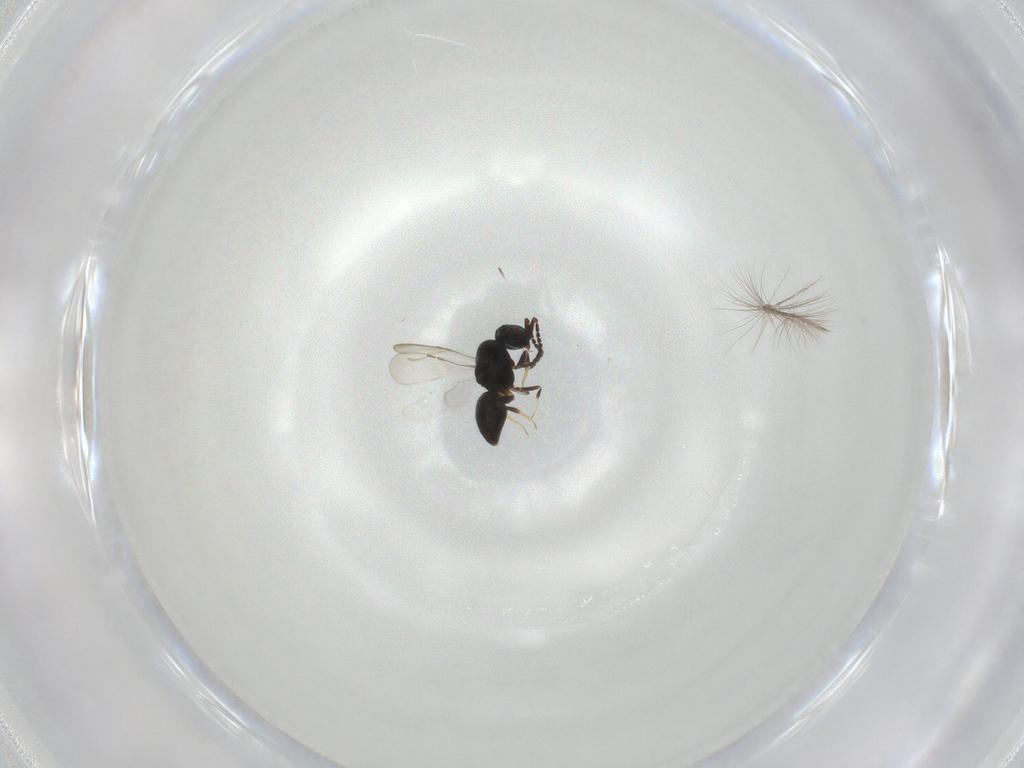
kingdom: Animalia
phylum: Arthropoda
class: Insecta
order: Hymenoptera
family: Ceraphronidae
